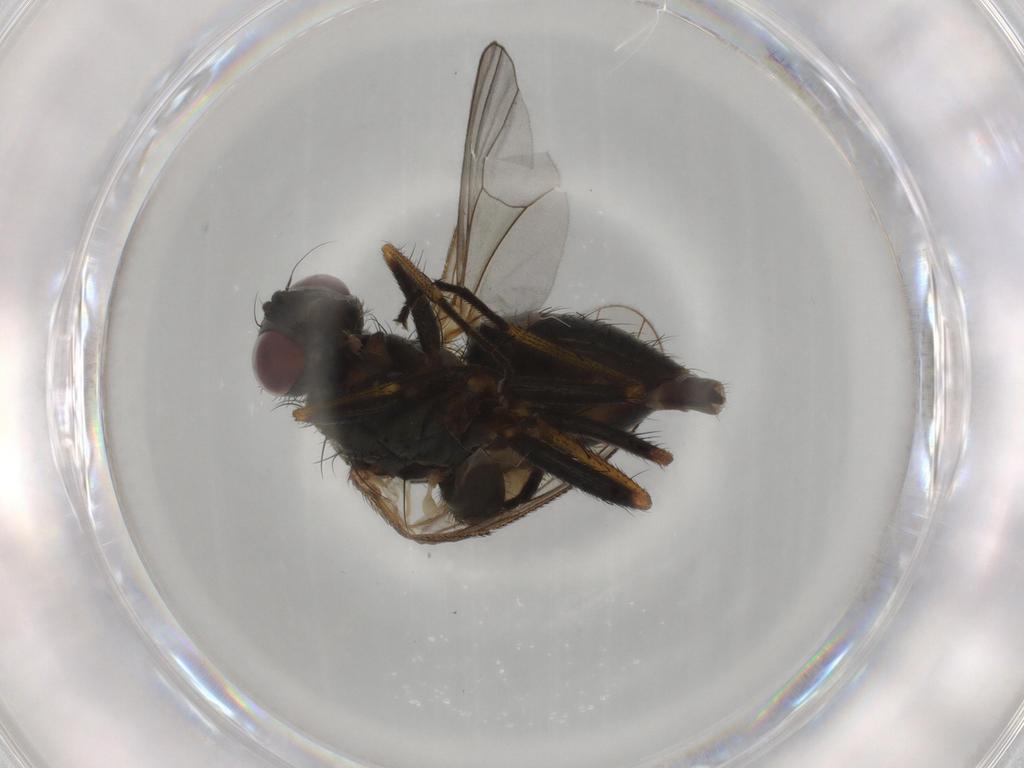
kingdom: Animalia
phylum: Arthropoda
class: Insecta
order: Diptera
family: Muscidae
